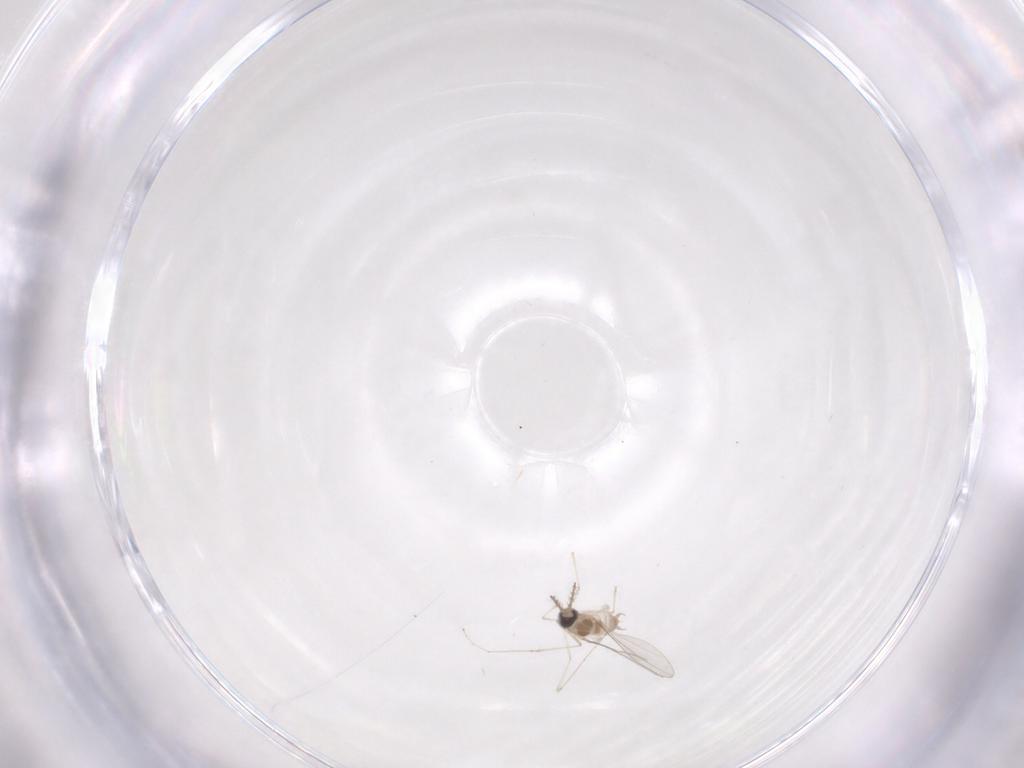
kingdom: Animalia
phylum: Arthropoda
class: Insecta
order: Diptera
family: Cecidomyiidae
